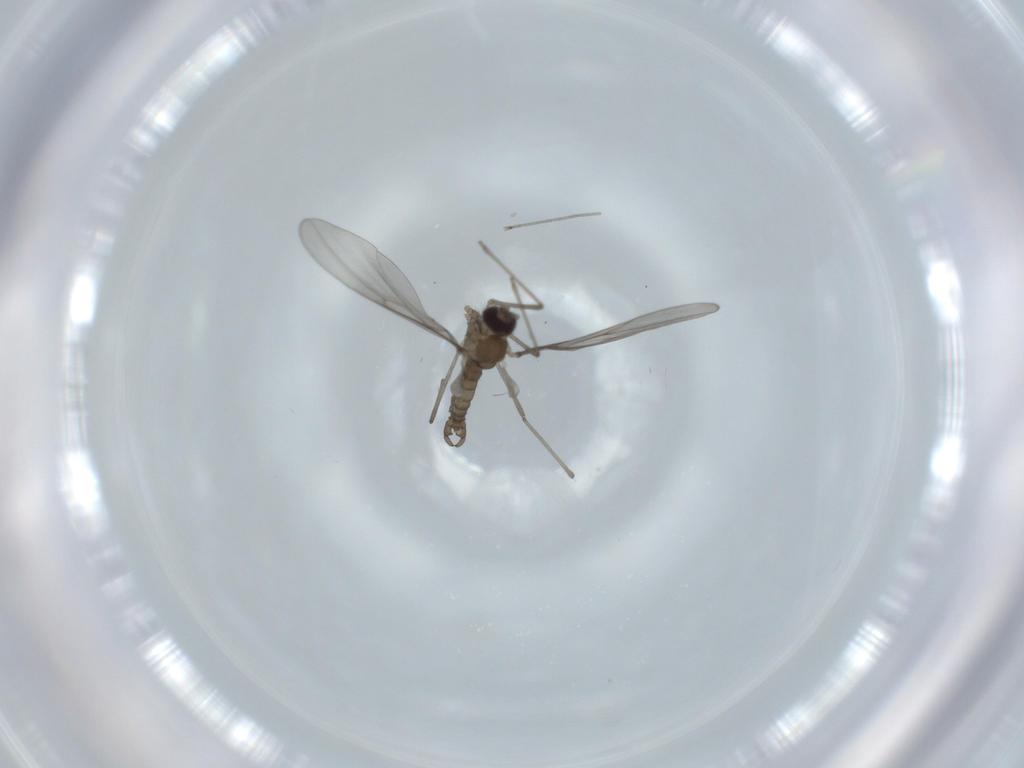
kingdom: Animalia
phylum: Arthropoda
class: Insecta
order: Diptera
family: Cecidomyiidae
